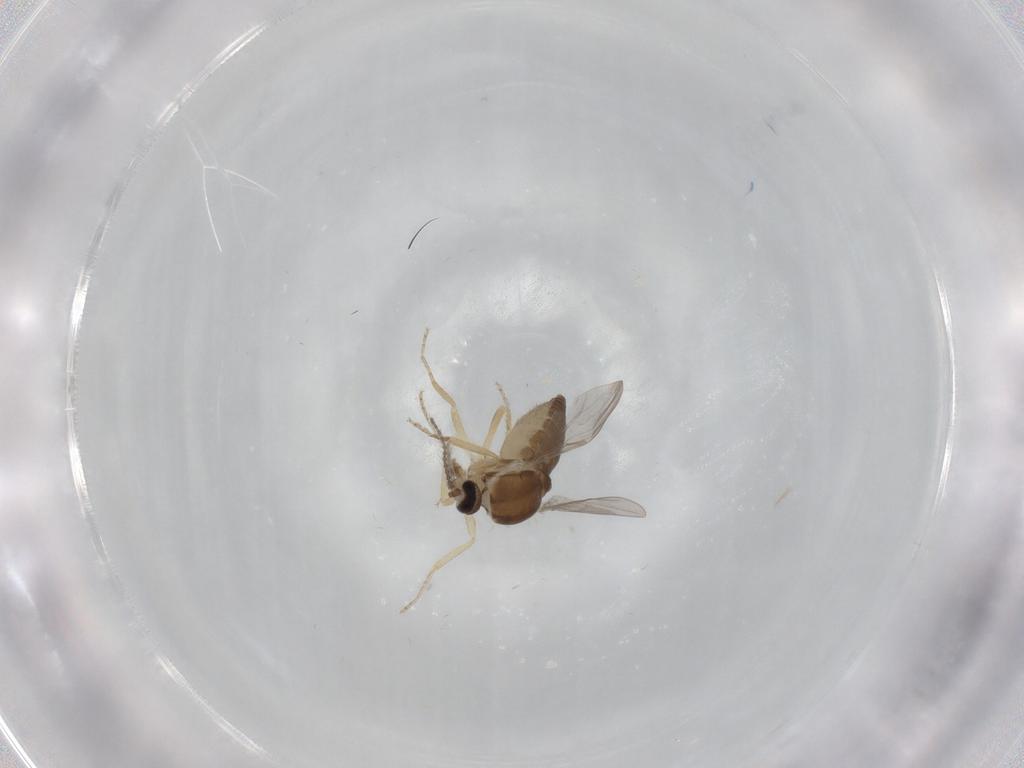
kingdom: Animalia
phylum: Arthropoda
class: Insecta
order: Diptera
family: Ceratopogonidae
